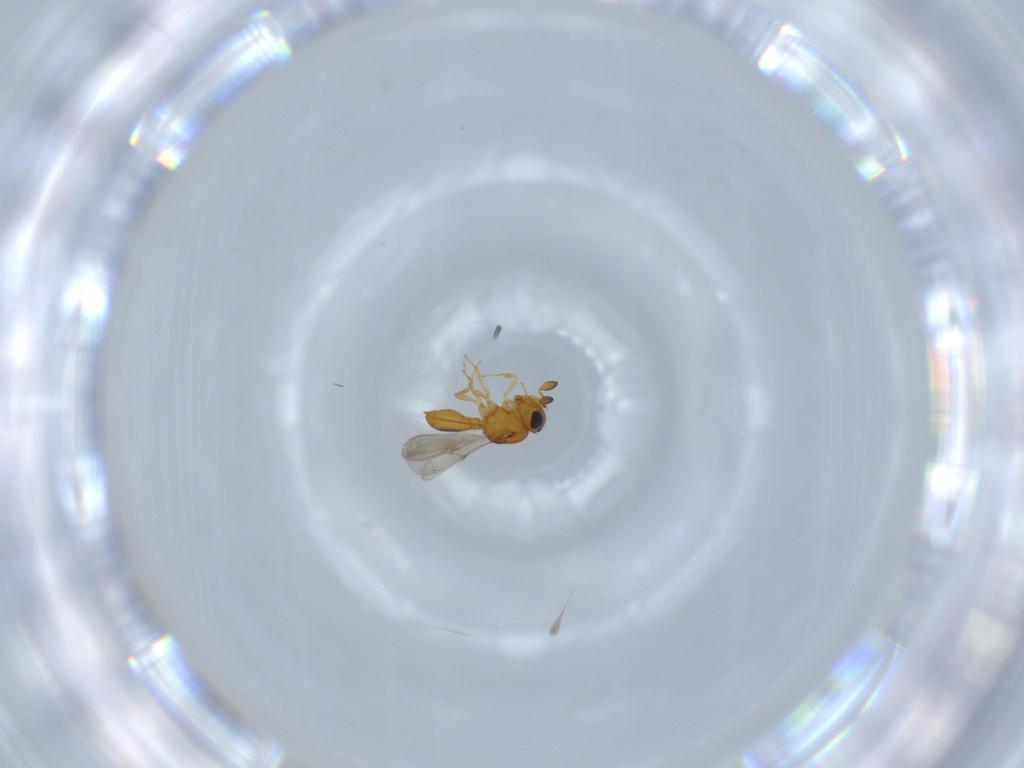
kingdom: Animalia
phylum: Arthropoda
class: Insecta
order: Hymenoptera
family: Scelionidae
